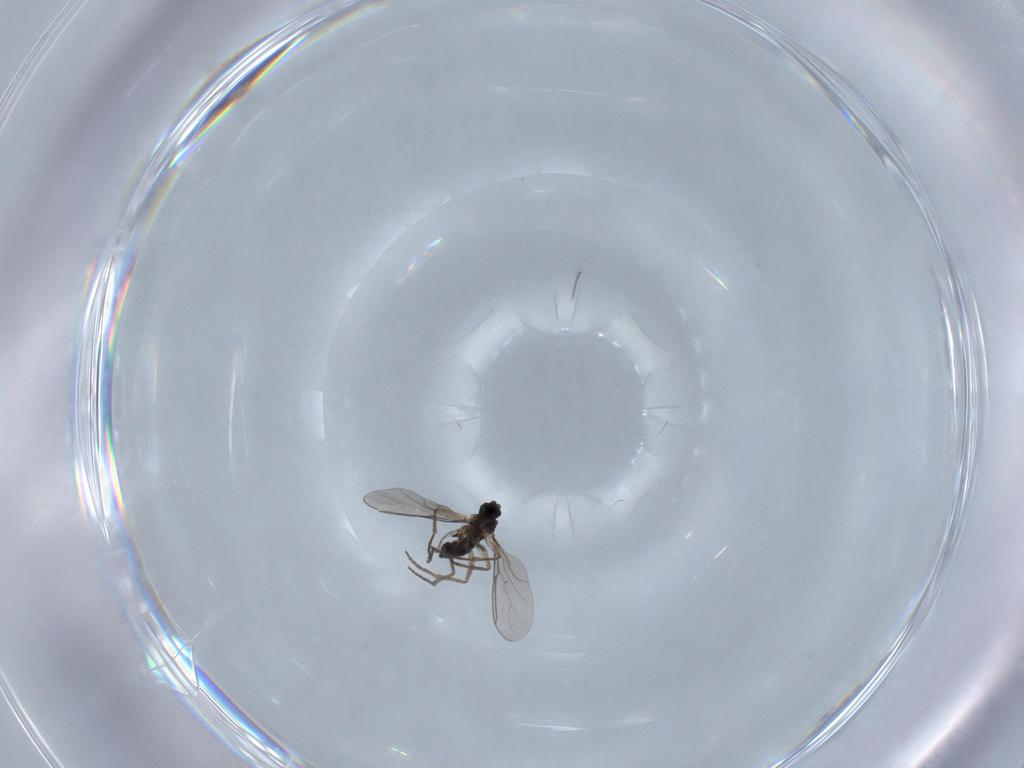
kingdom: Animalia
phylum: Arthropoda
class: Insecta
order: Diptera
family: Sciaridae
